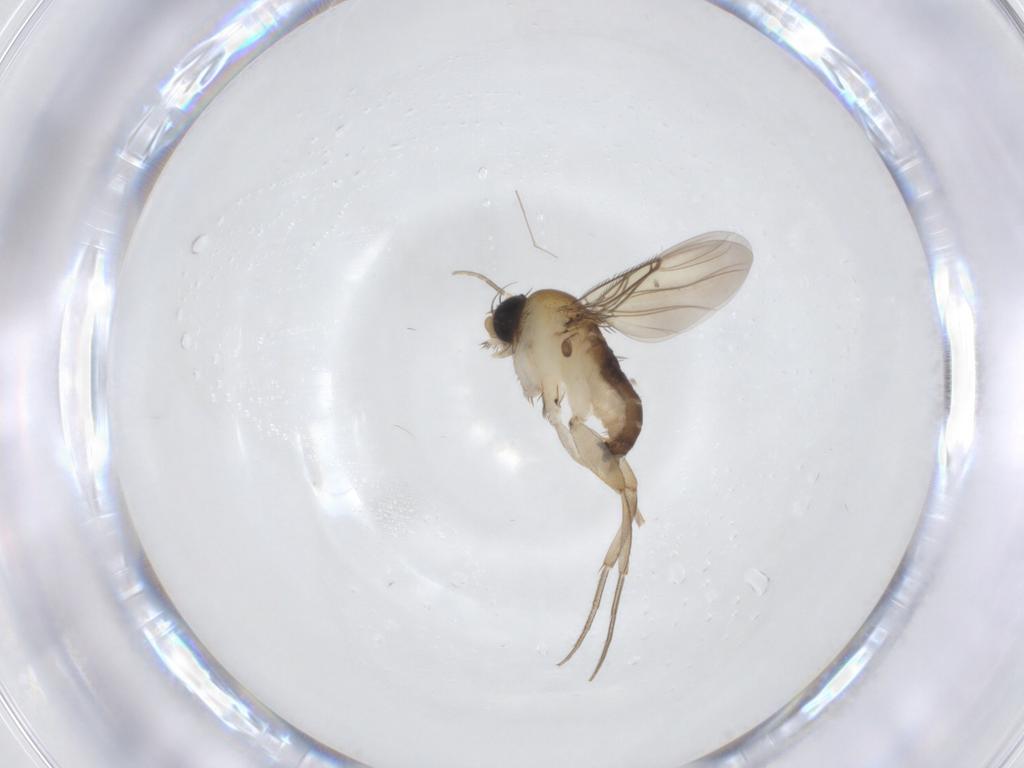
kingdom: Animalia
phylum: Arthropoda
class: Insecta
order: Diptera
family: Phoridae
